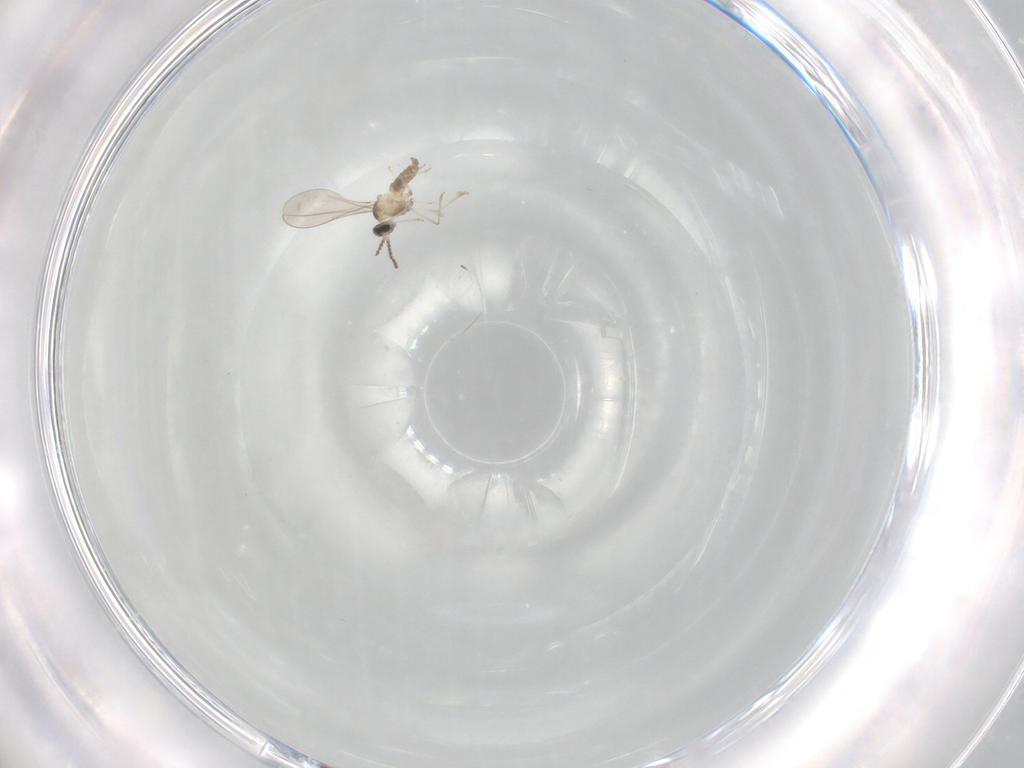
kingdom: Animalia
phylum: Arthropoda
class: Insecta
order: Diptera
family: Cecidomyiidae
